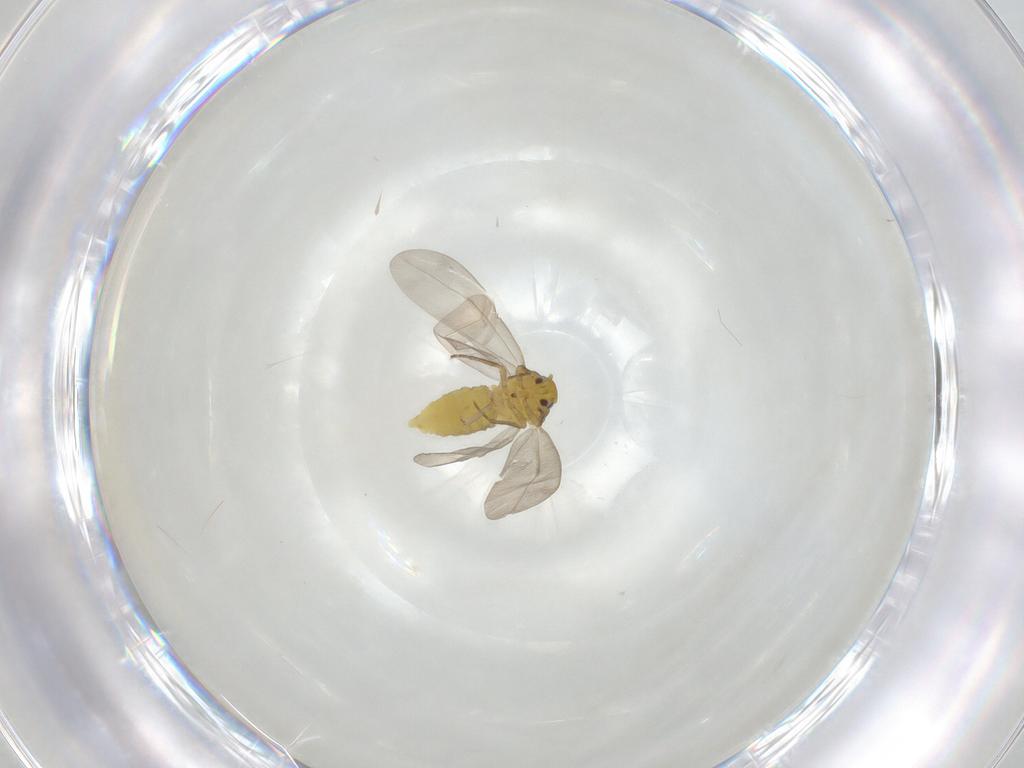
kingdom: Animalia
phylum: Arthropoda
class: Insecta
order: Hemiptera
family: Aleyrodidae
